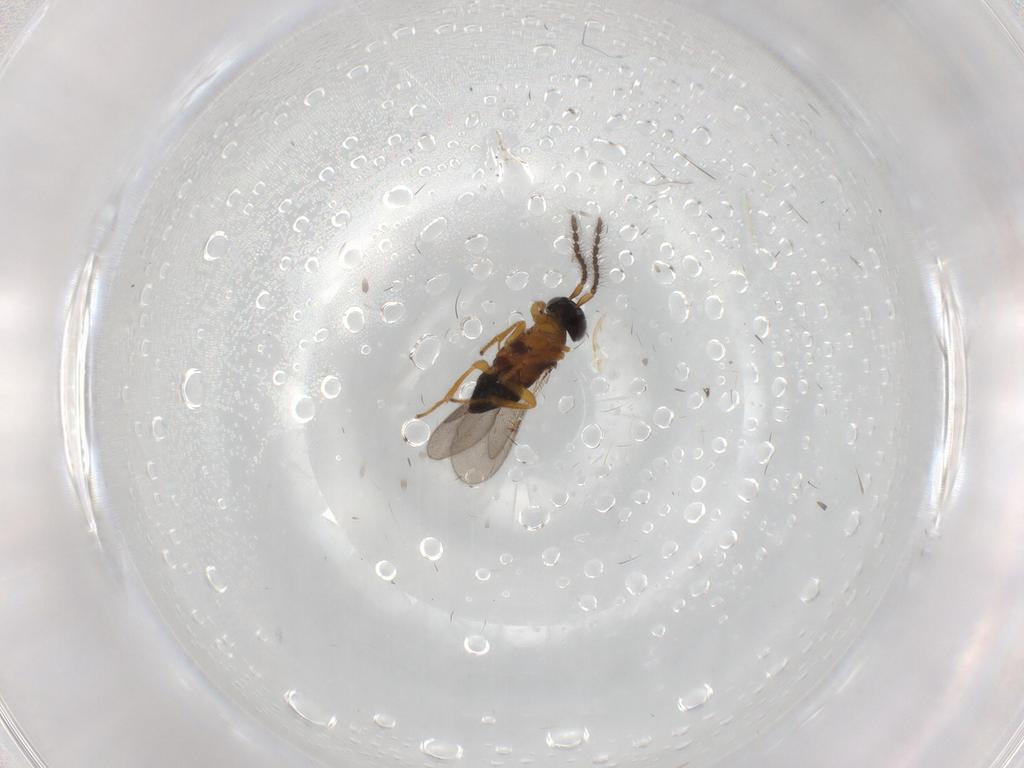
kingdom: Animalia
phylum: Arthropoda
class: Insecta
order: Hymenoptera
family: Encyrtidae
